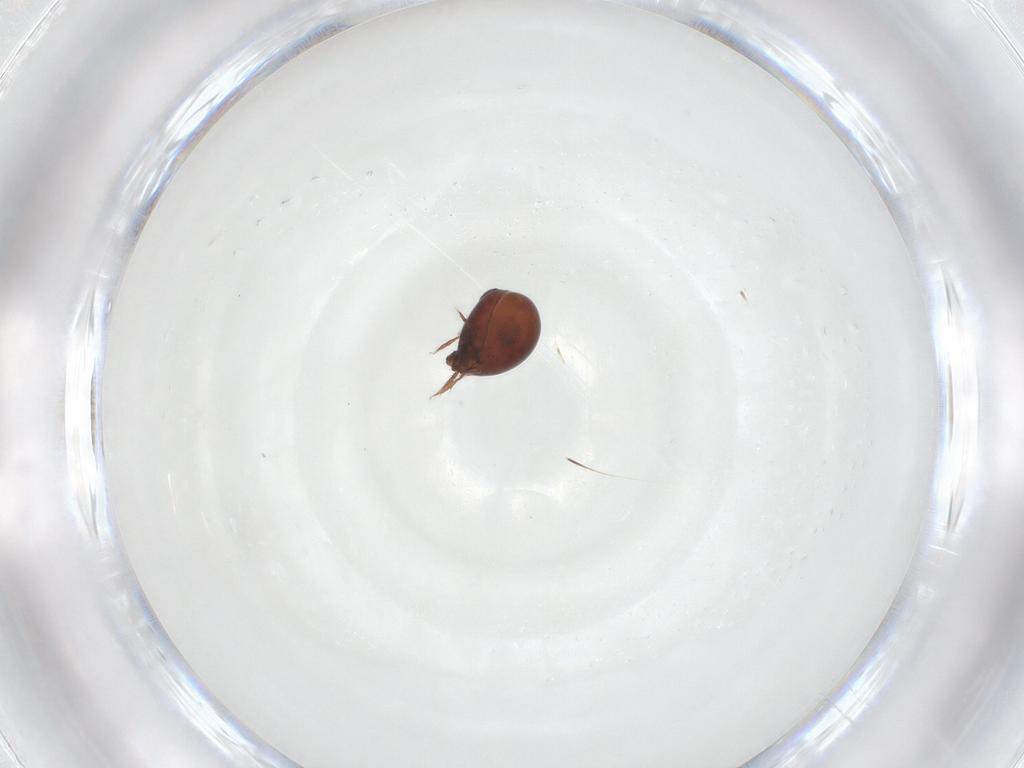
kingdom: Animalia
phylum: Arthropoda
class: Arachnida
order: Sarcoptiformes
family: Mochlozetidae
